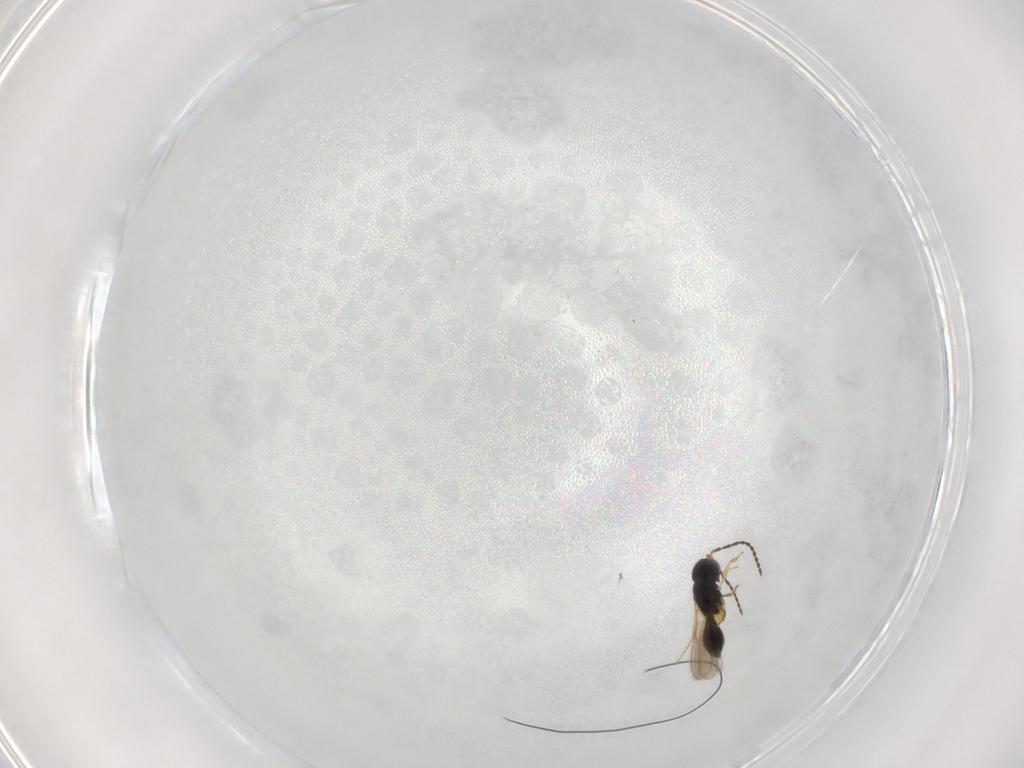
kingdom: Animalia
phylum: Arthropoda
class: Insecta
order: Hymenoptera
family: Scelionidae
